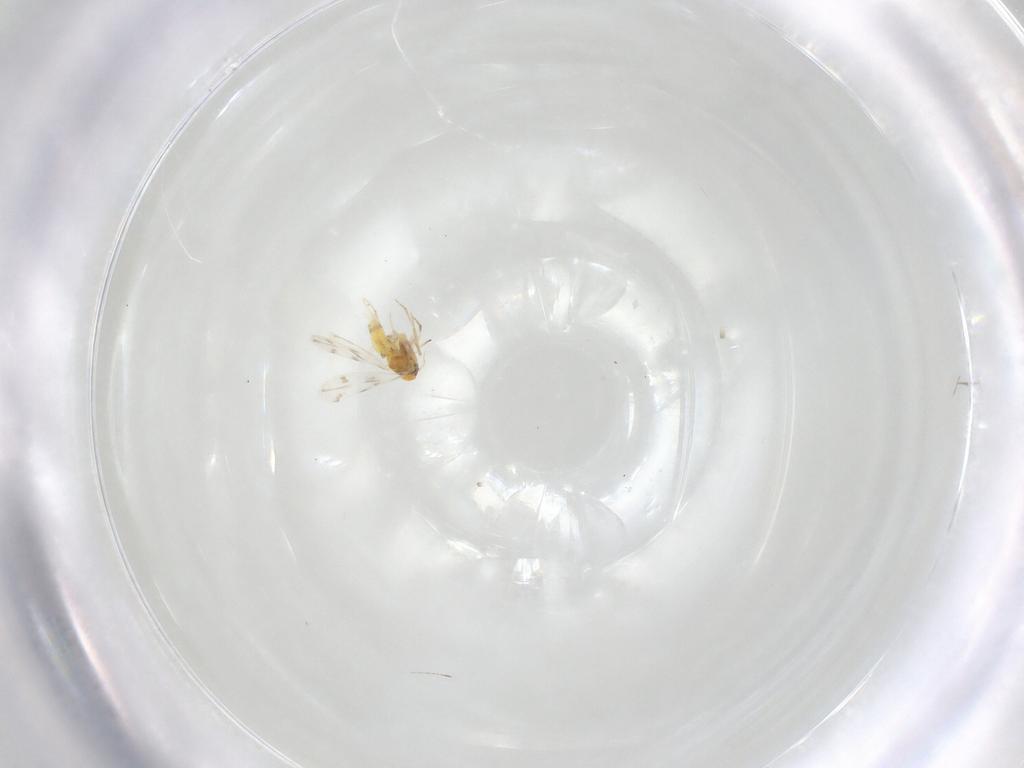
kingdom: Animalia
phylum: Arthropoda
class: Insecta
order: Hemiptera
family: Aleyrodidae
